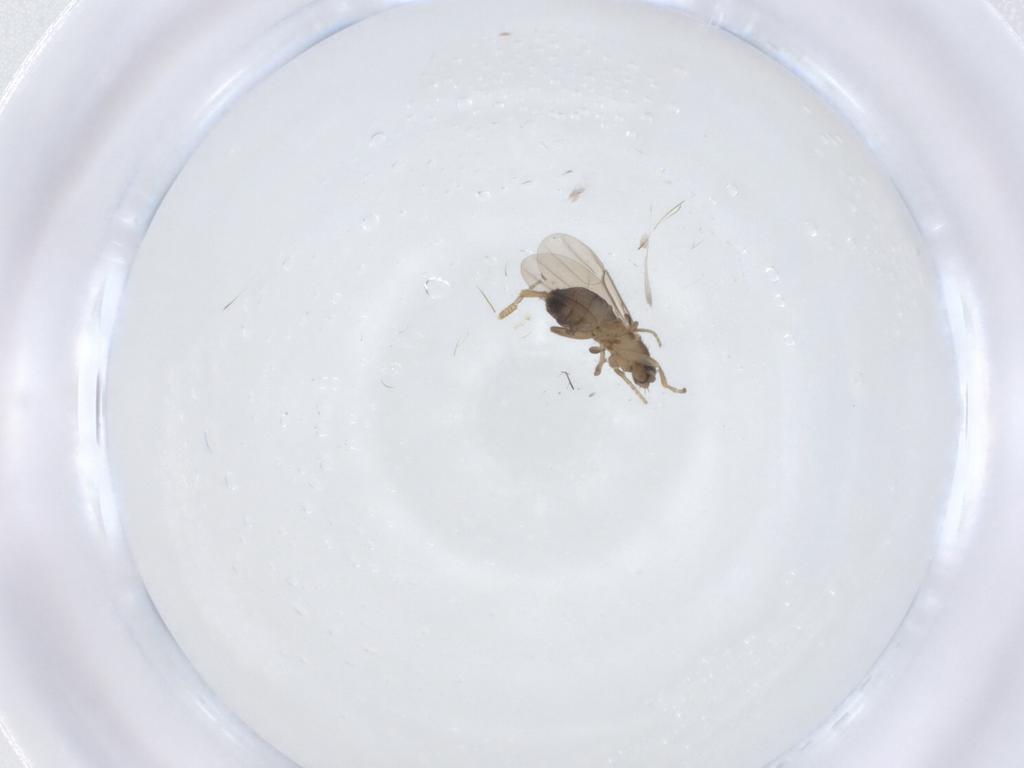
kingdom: Animalia
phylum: Arthropoda
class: Insecta
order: Diptera
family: Phoridae
